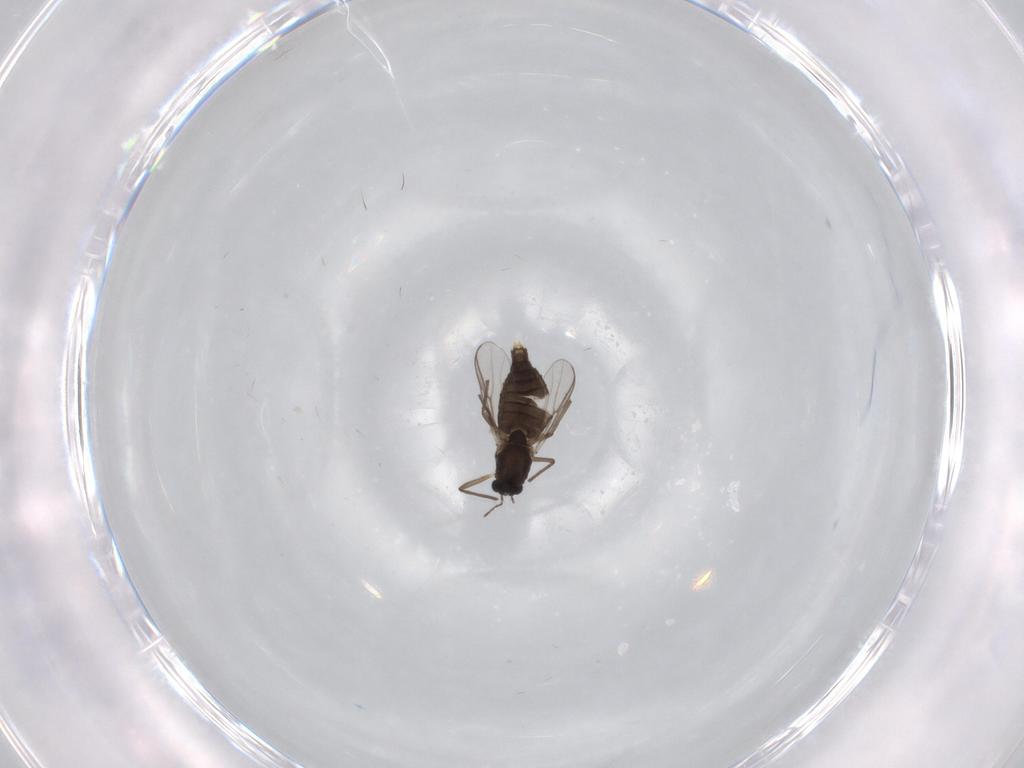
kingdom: Animalia
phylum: Arthropoda
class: Insecta
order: Diptera
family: Chironomidae
